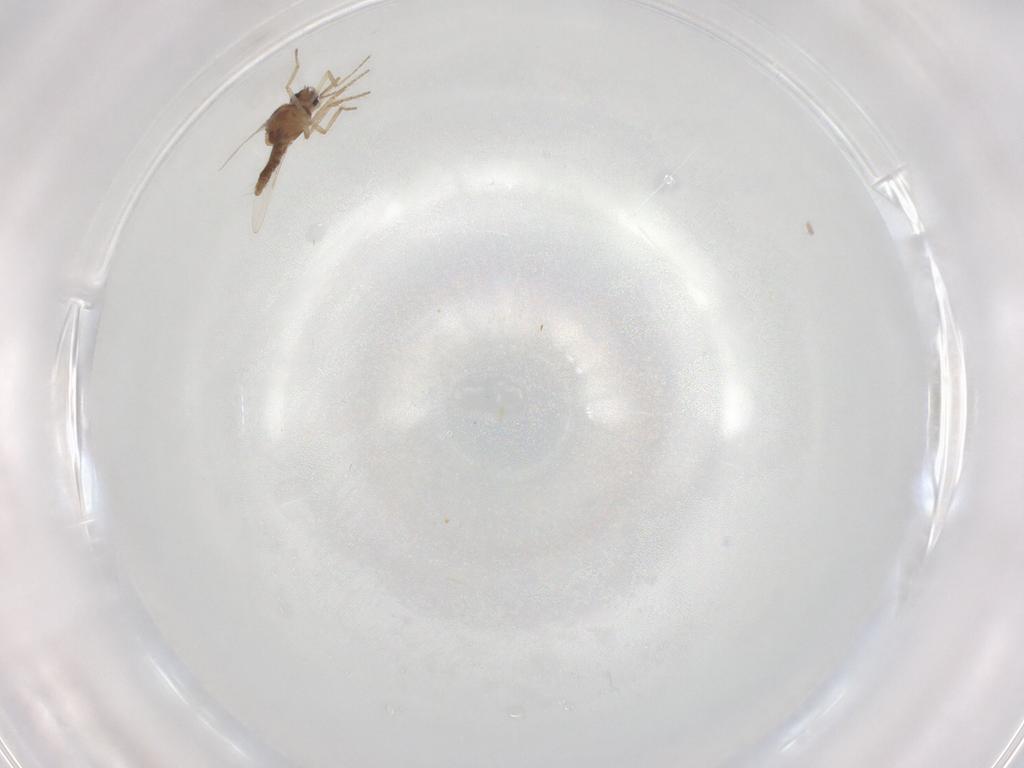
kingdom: Animalia
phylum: Arthropoda
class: Insecta
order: Diptera
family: Ceratopogonidae
